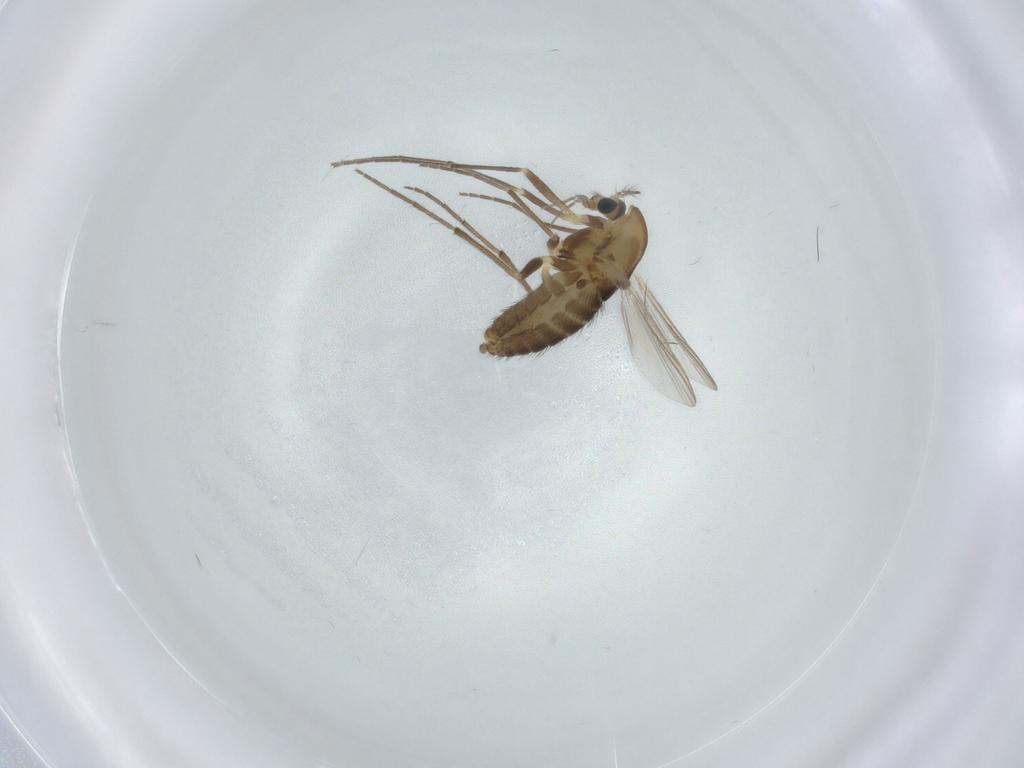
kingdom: Animalia
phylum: Arthropoda
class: Insecta
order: Diptera
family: Chironomidae
